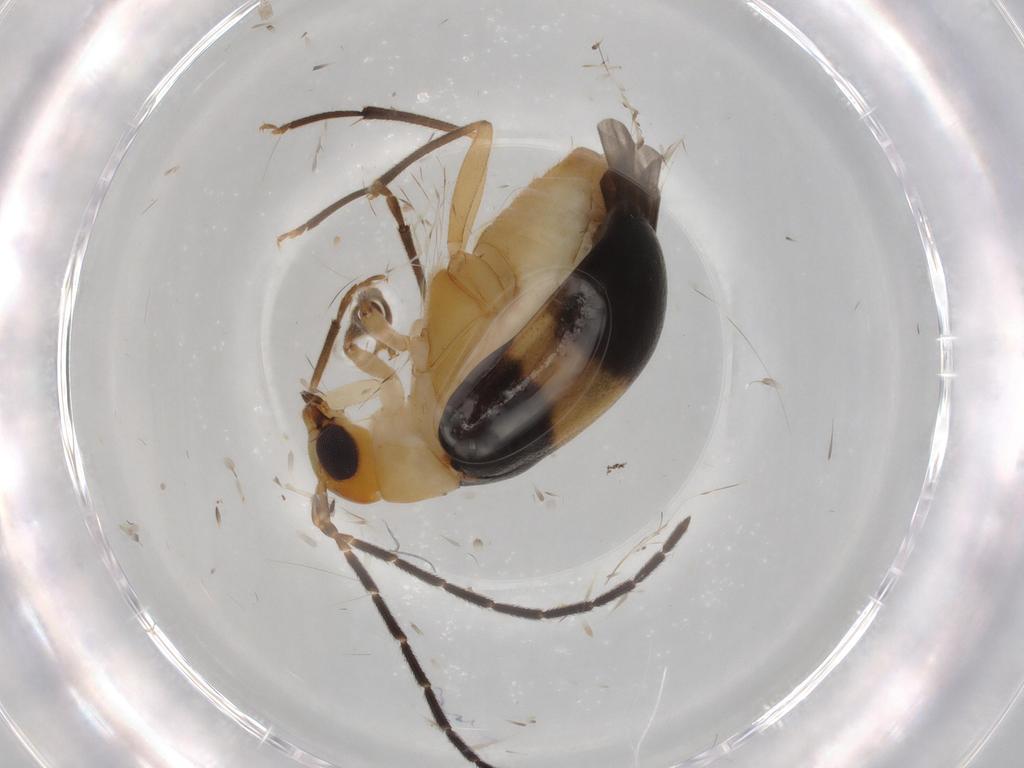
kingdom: Animalia
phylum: Arthropoda
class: Insecta
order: Coleoptera
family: Chrysomelidae
